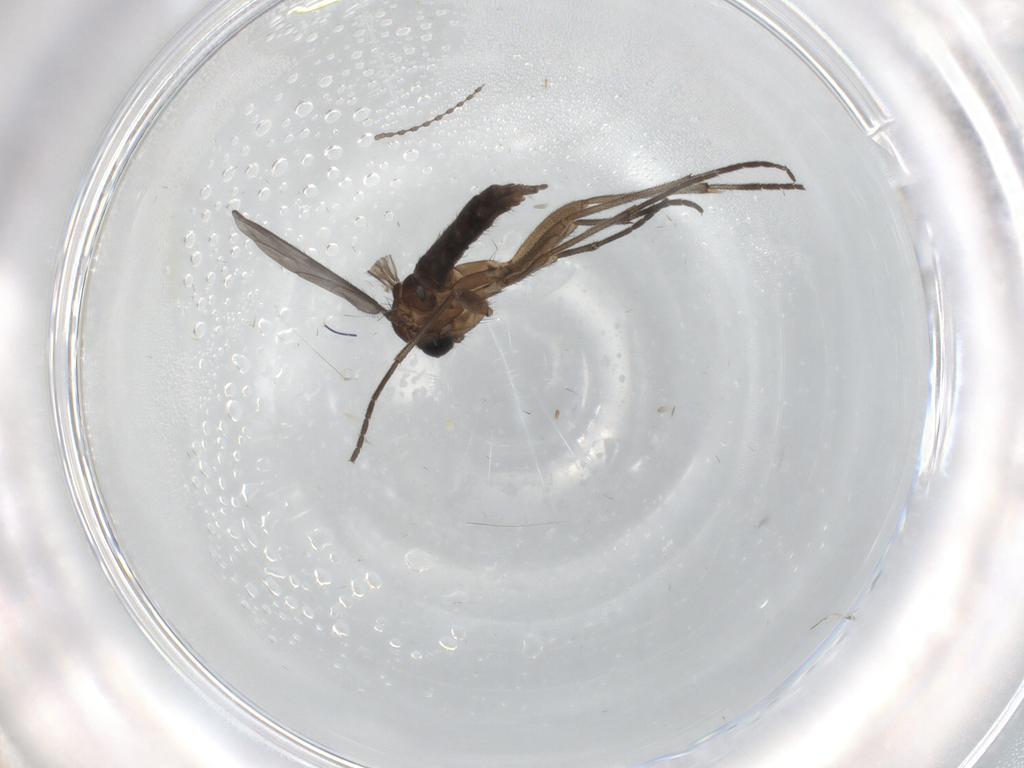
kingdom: Animalia
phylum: Arthropoda
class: Insecta
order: Diptera
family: Sciaridae
